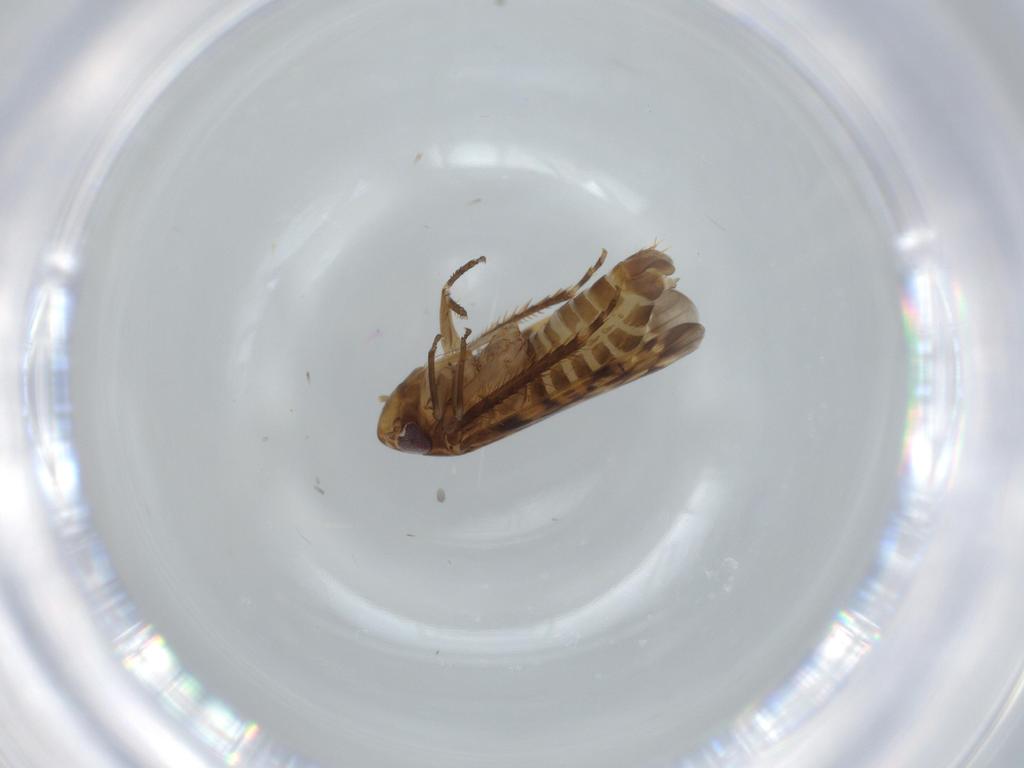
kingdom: Animalia
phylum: Arthropoda
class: Insecta
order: Hemiptera
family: Cicadellidae
